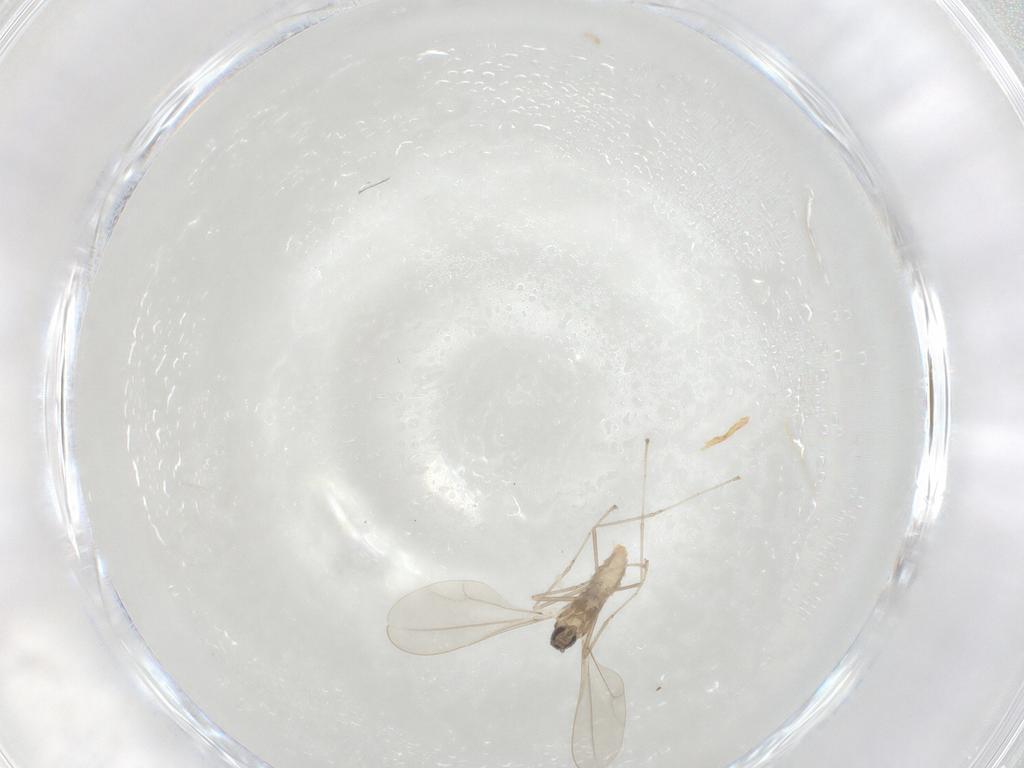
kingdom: Animalia
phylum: Arthropoda
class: Insecta
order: Diptera
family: Cecidomyiidae
